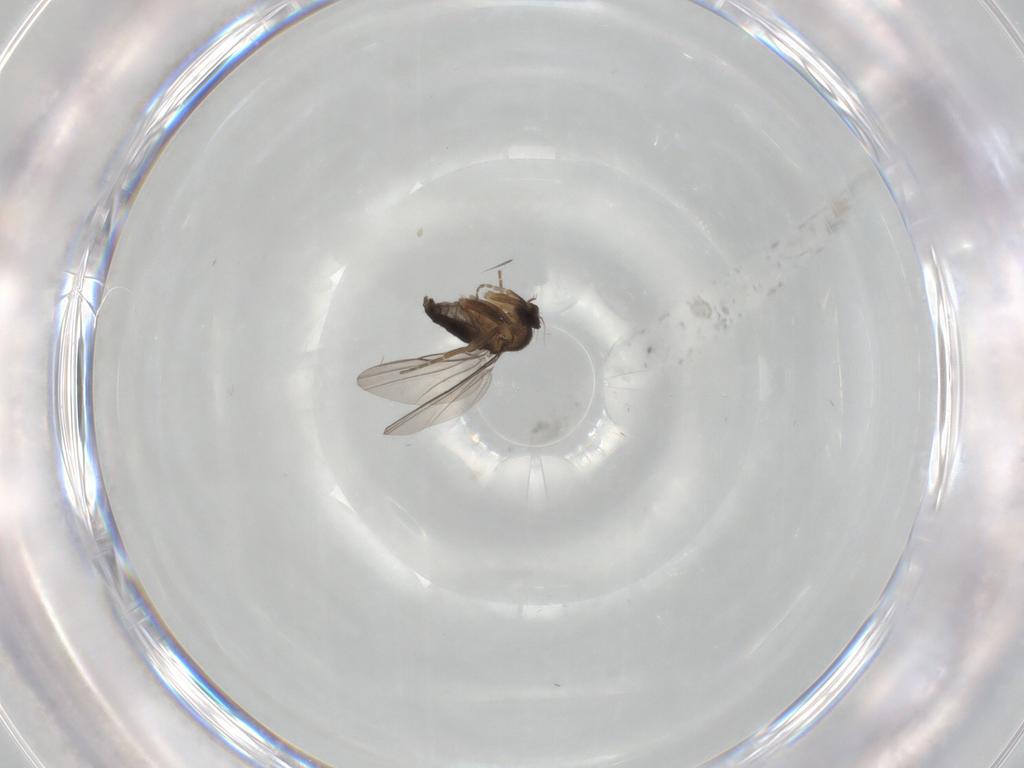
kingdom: Animalia
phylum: Arthropoda
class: Insecta
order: Diptera
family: Phoridae
